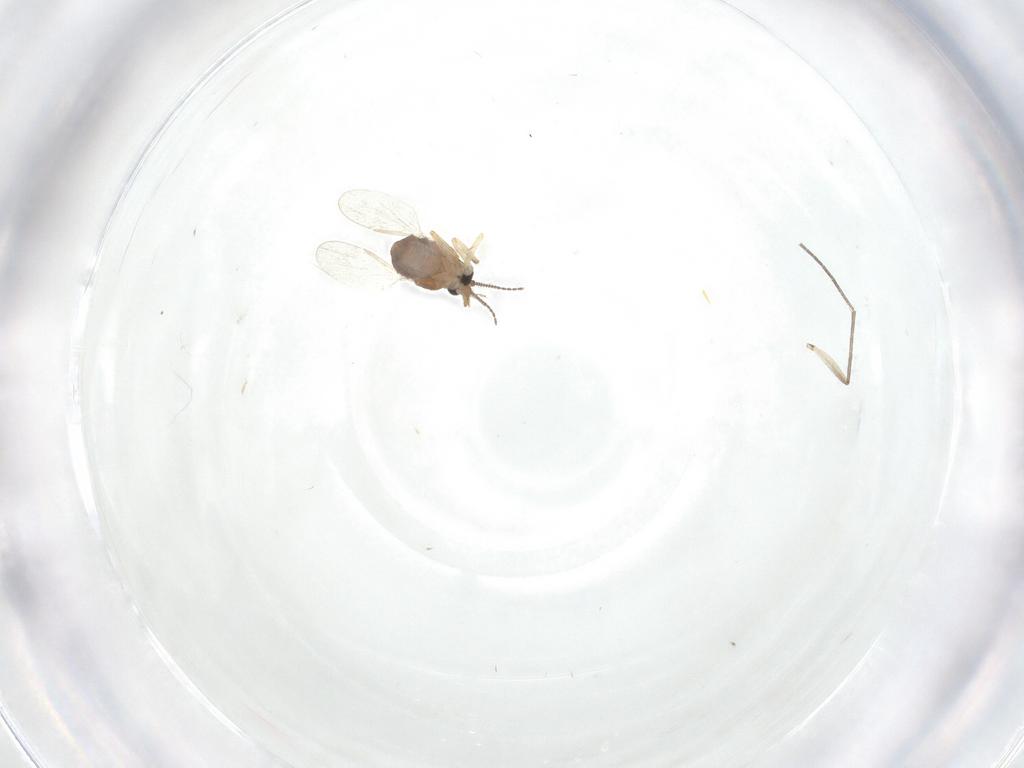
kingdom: Animalia
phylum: Arthropoda
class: Insecta
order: Diptera
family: Ceratopogonidae
